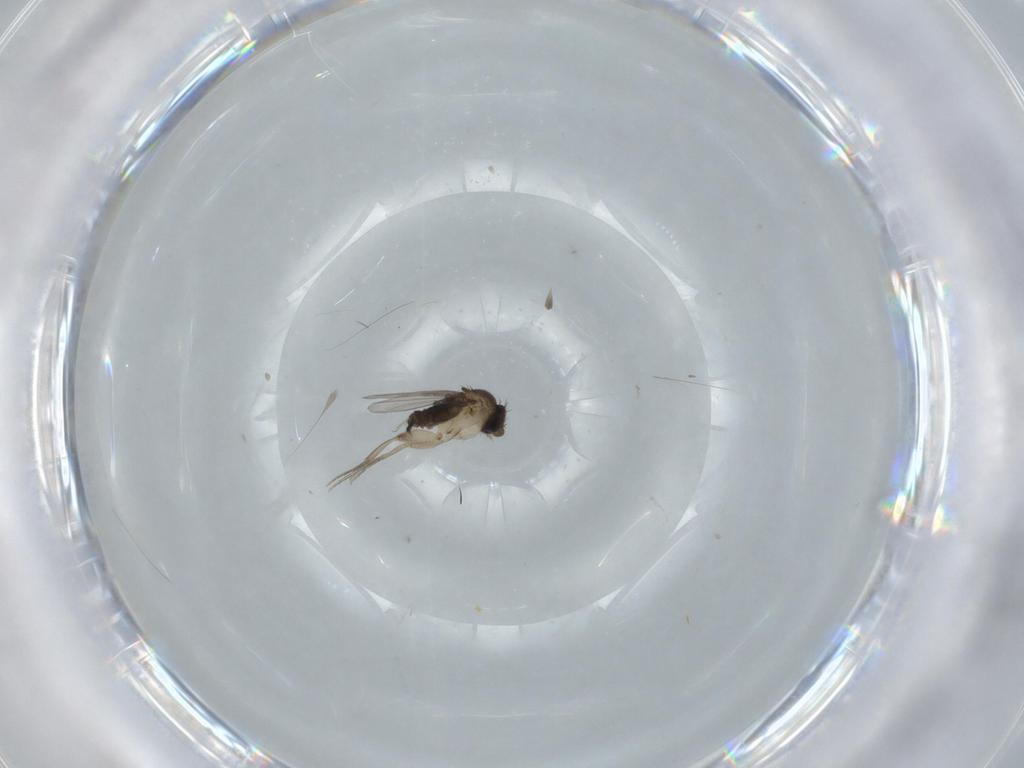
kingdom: Animalia
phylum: Arthropoda
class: Insecta
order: Diptera
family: Phoridae
